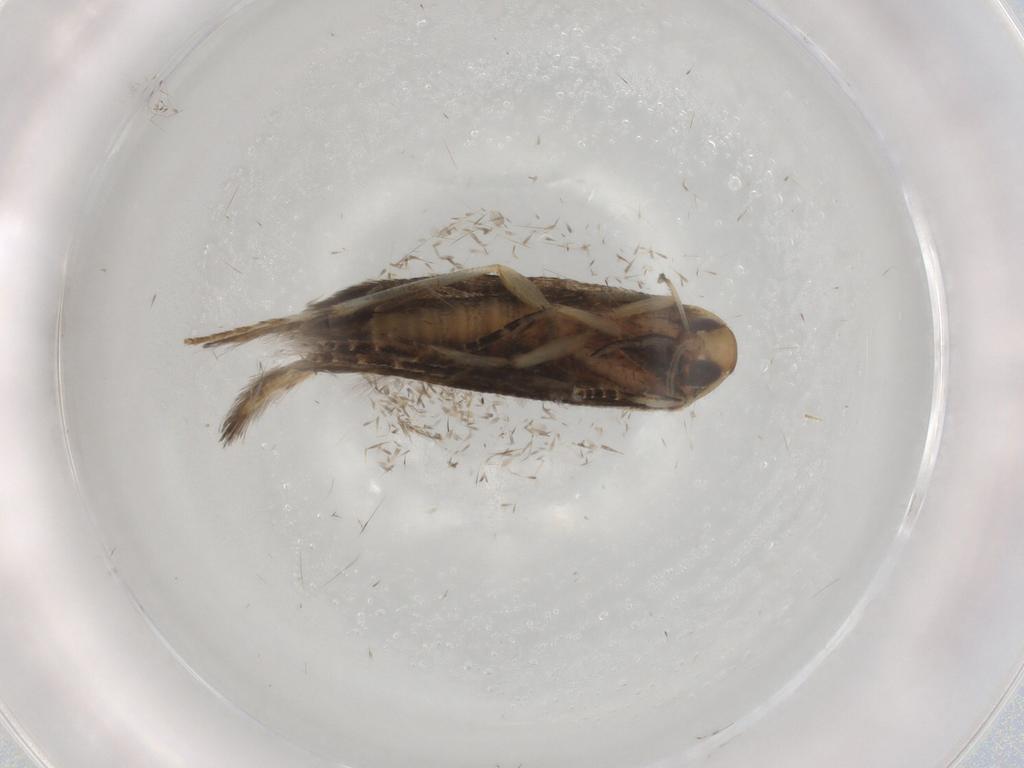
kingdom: Animalia
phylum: Arthropoda
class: Insecta
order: Lepidoptera
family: Cosmopterigidae
